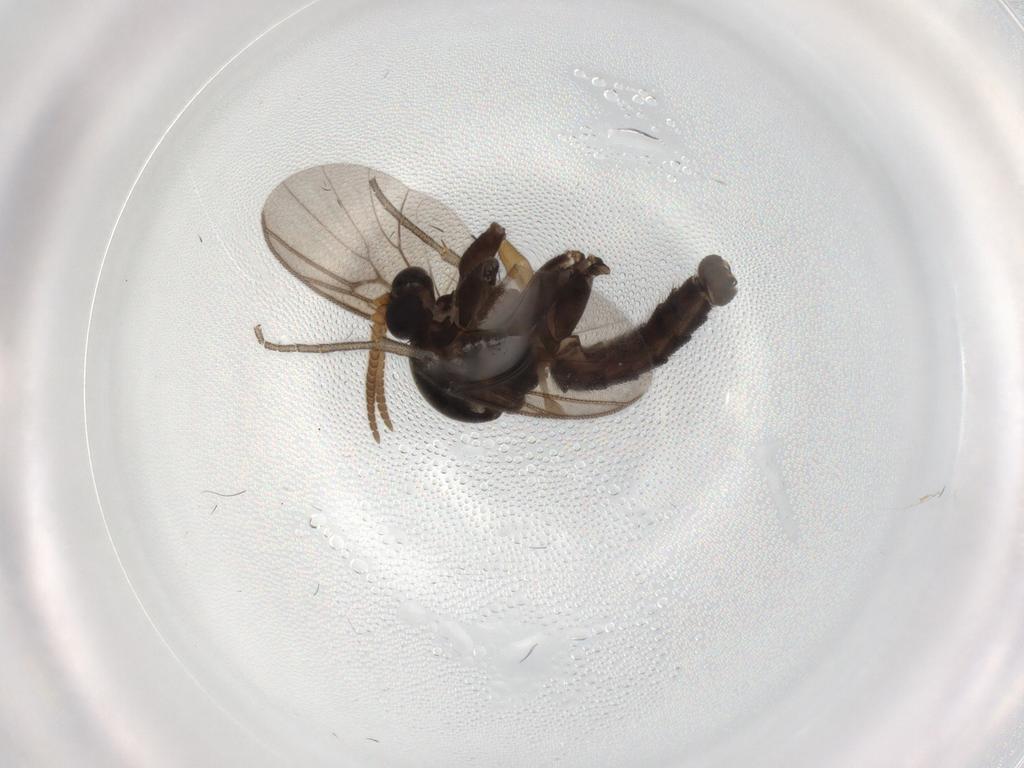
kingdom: Animalia
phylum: Arthropoda
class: Insecta
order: Diptera
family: Mycetophilidae
